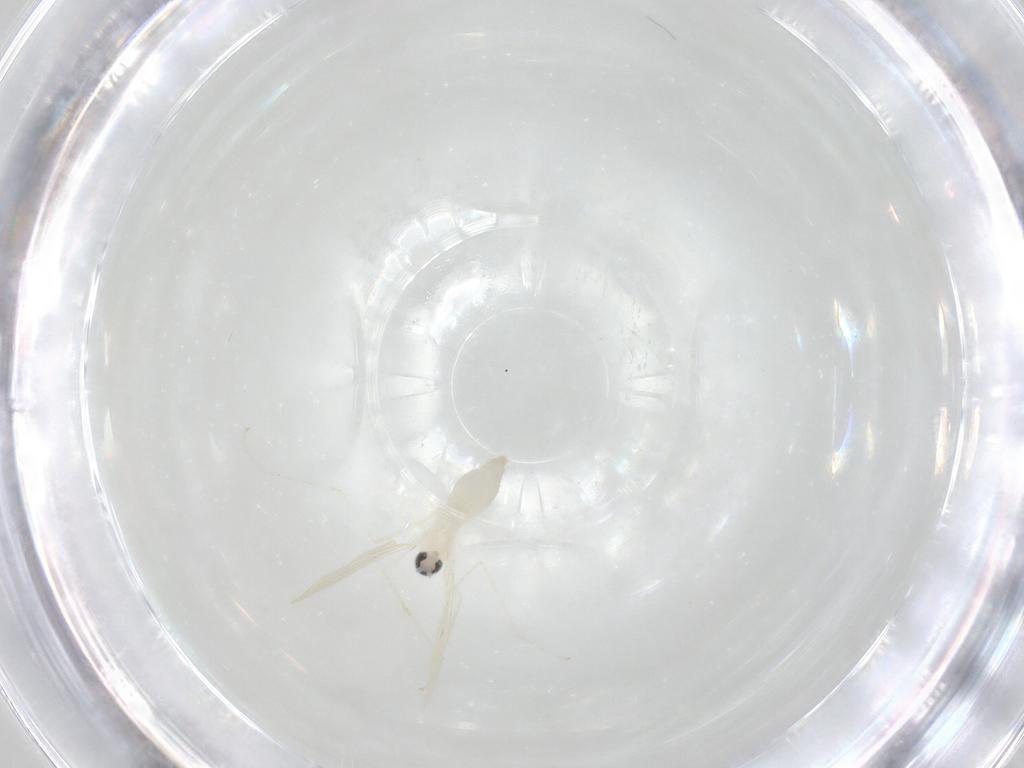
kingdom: Animalia
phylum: Arthropoda
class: Insecta
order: Diptera
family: Cecidomyiidae
